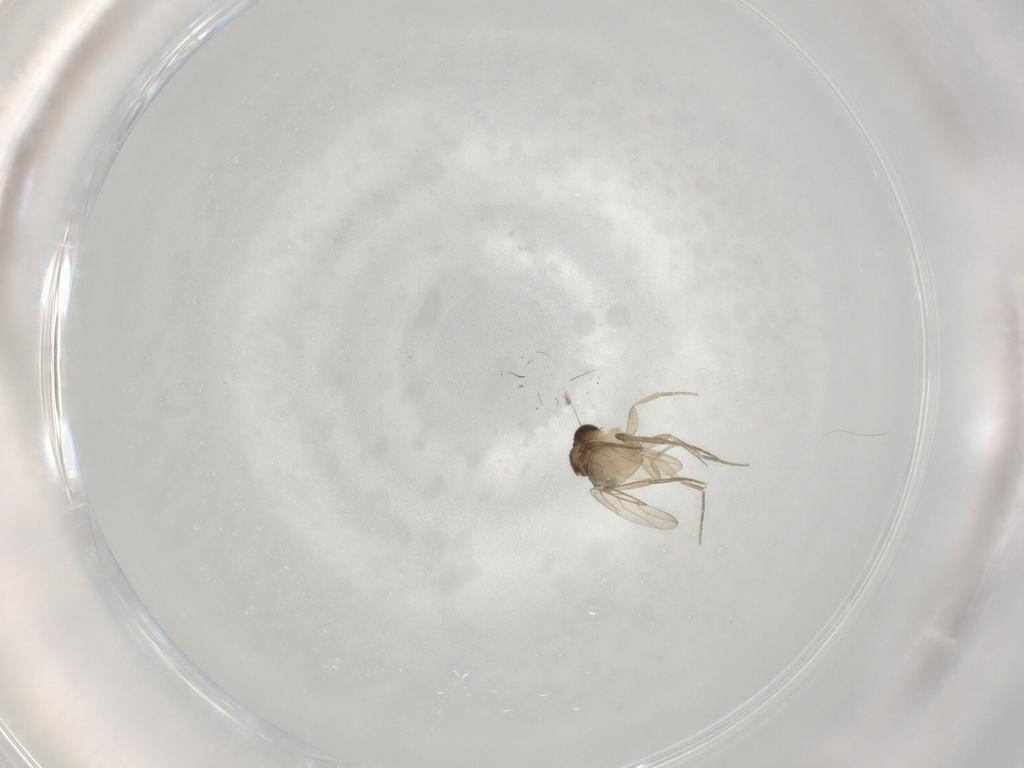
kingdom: Animalia
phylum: Arthropoda
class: Insecta
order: Diptera
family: Phoridae
